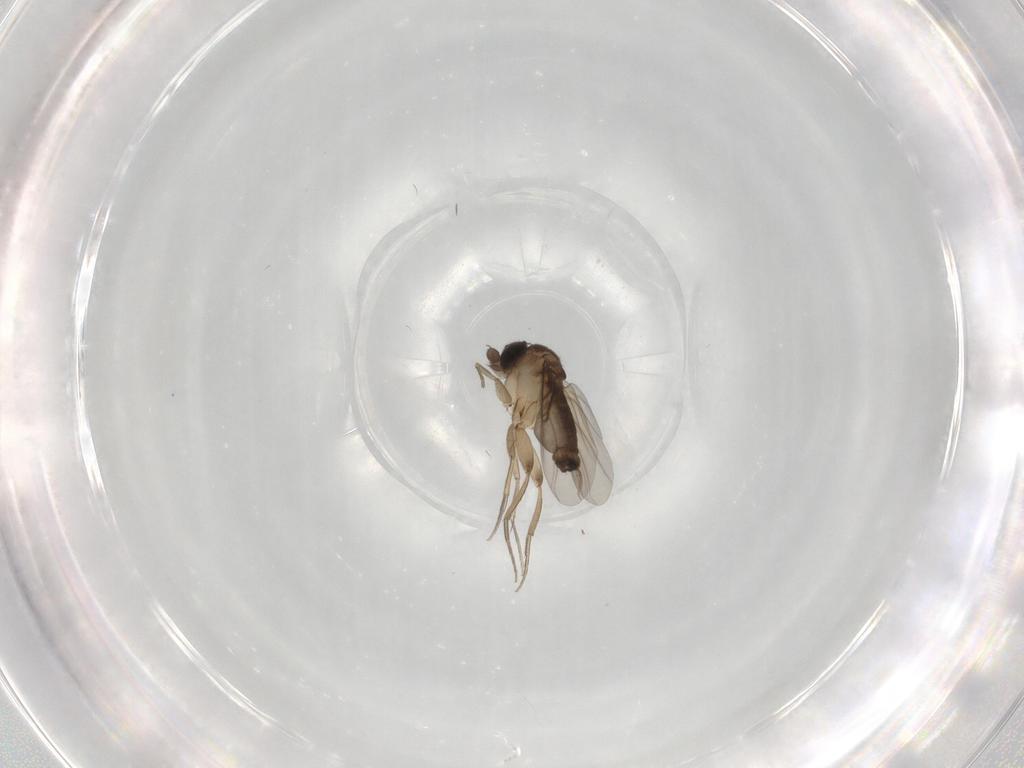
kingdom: Animalia
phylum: Arthropoda
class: Insecta
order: Diptera
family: Phoridae
